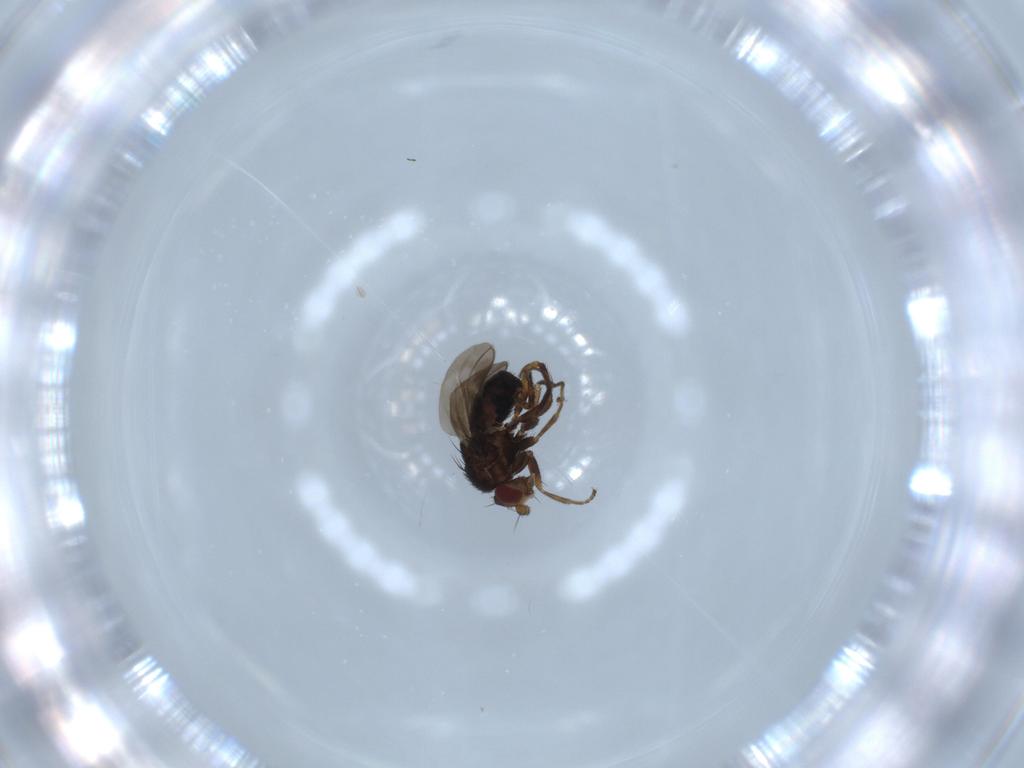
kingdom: Animalia
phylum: Arthropoda
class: Insecta
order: Diptera
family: Sphaeroceridae
